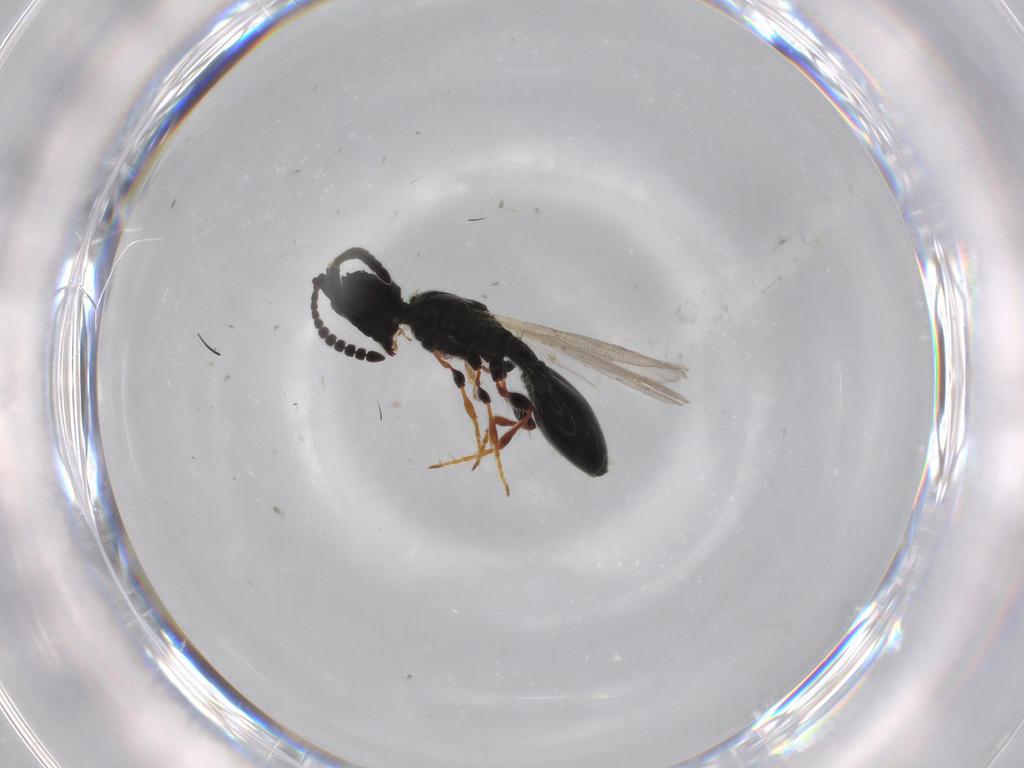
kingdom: Animalia
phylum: Arthropoda
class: Insecta
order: Hymenoptera
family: Bethylidae
